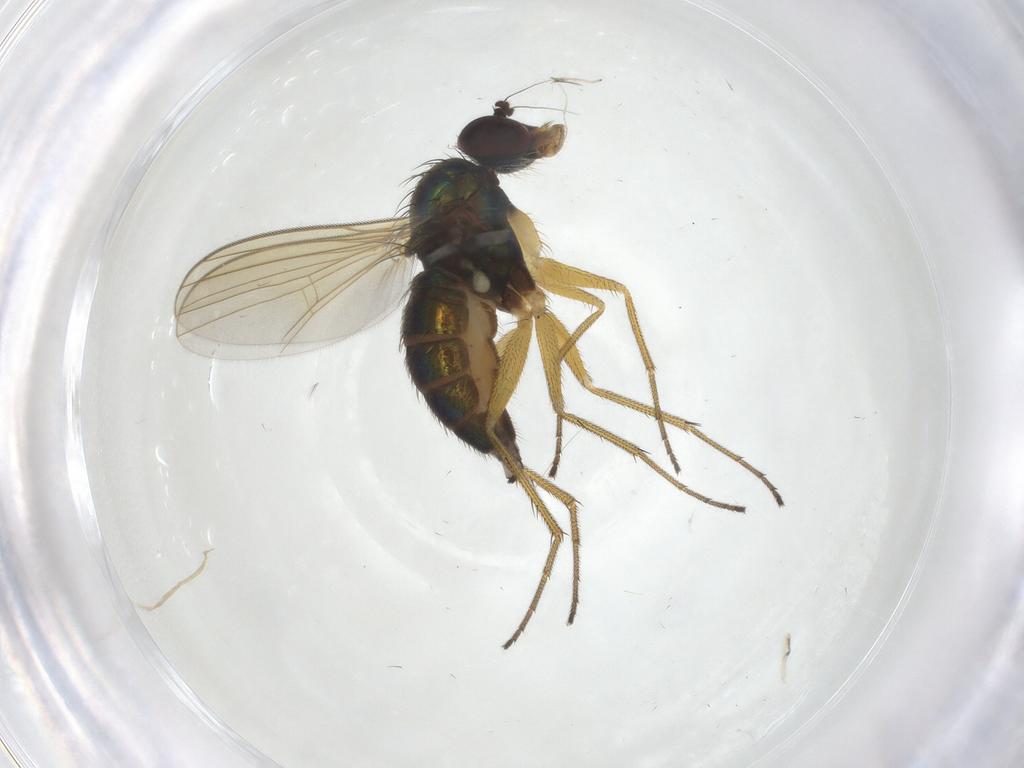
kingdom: Animalia
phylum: Arthropoda
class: Insecta
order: Diptera
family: Dolichopodidae
